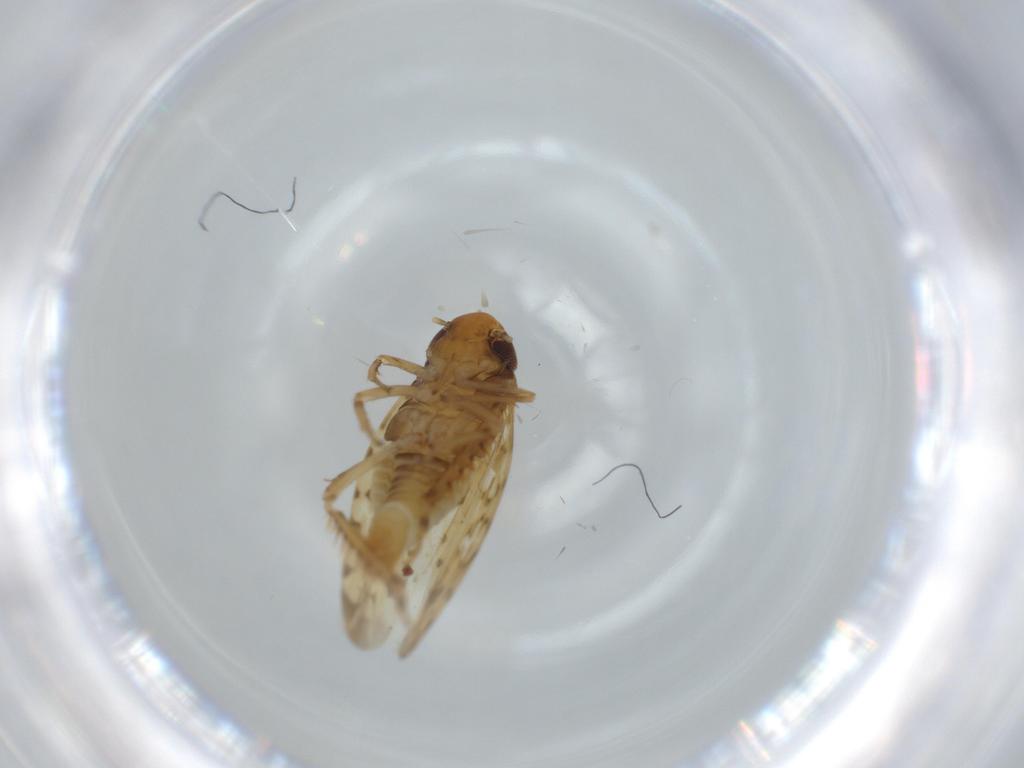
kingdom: Animalia
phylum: Arthropoda
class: Insecta
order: Hemiptera
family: Cicadellidae
